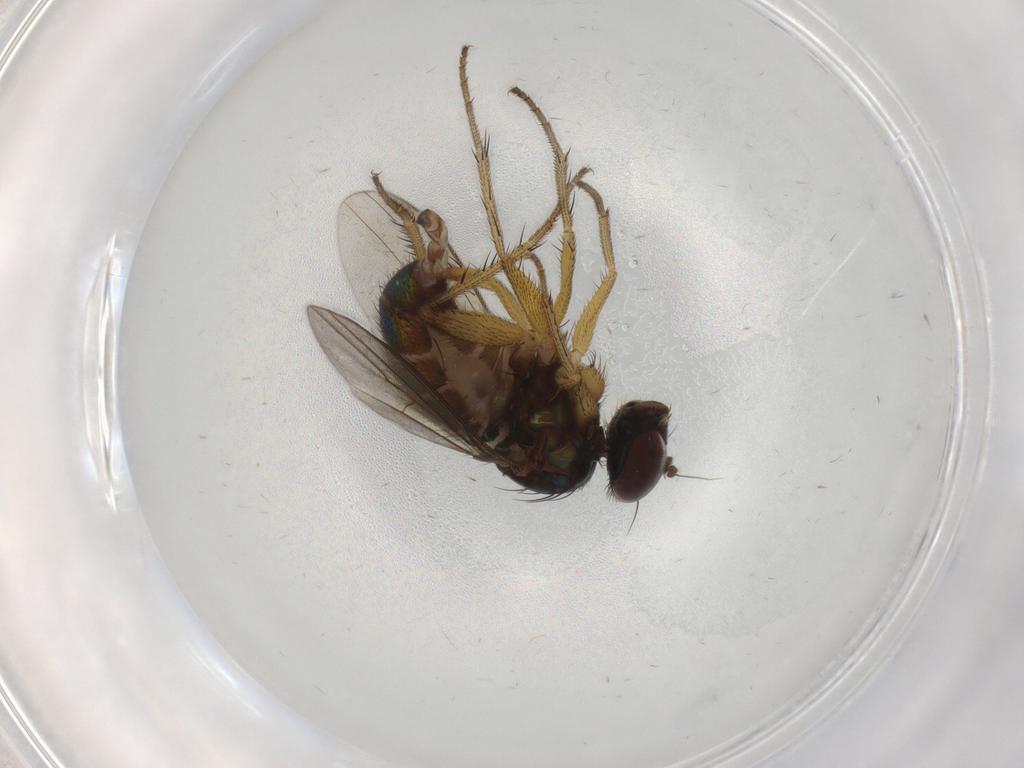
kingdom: Animalia
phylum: Arthropoda
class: Insecta
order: Diptera
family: Dolichopodidae
